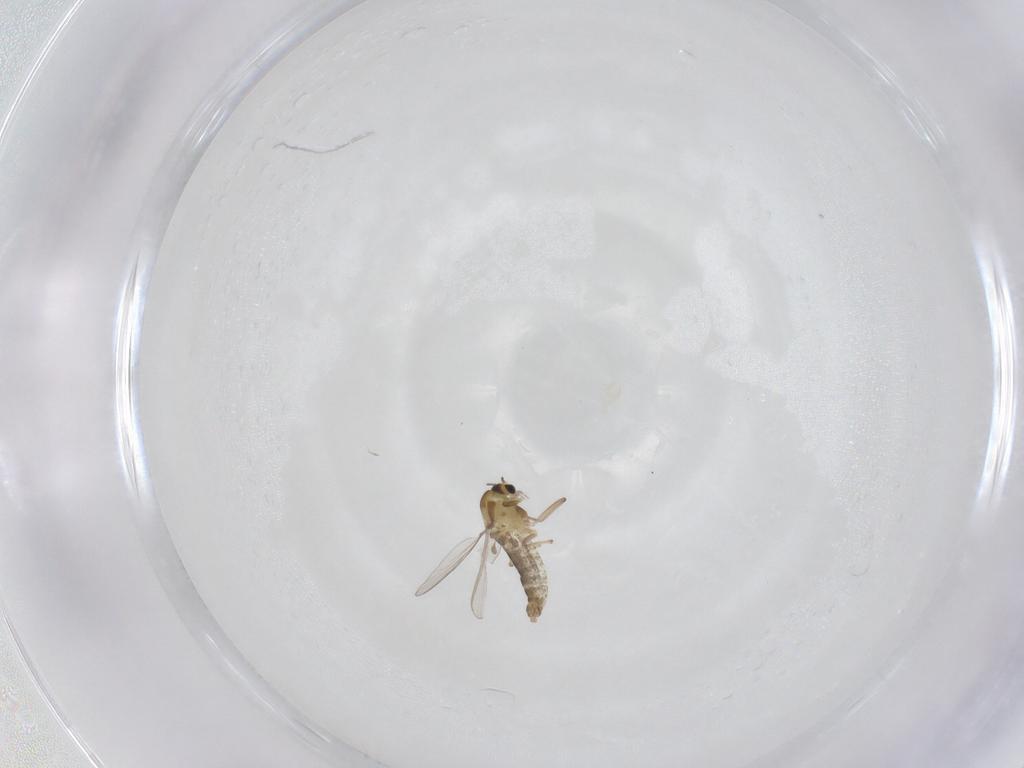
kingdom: Animalia
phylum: Arthropoda
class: Insecta
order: Diptera
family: Sciaridae
